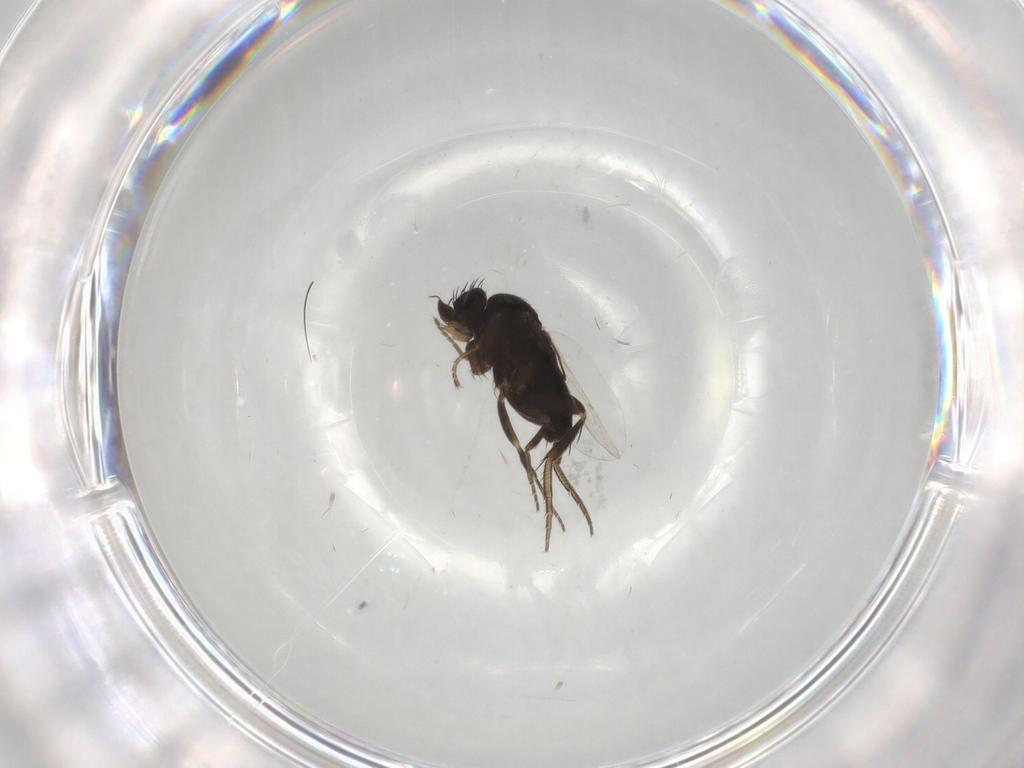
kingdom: Animalia
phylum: Arthropoda
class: Insecta
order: Diptera
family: Phoridae
